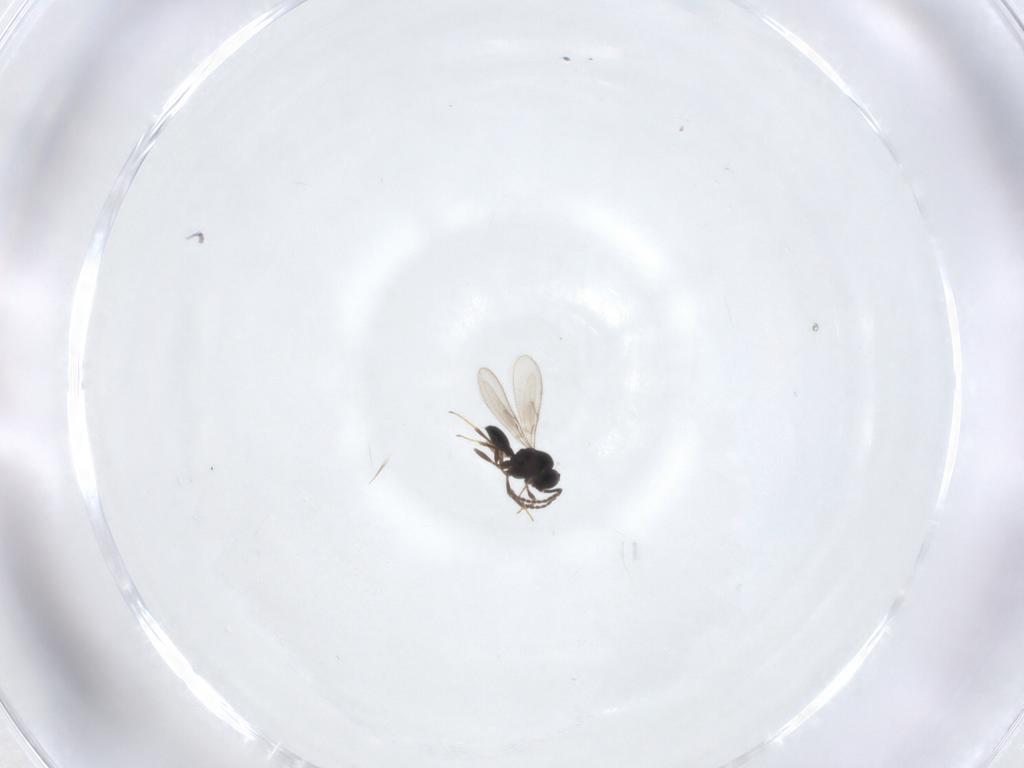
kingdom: Animalia
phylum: Arthropoda
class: Insecta
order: Hymenoptera
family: Scelionidae
